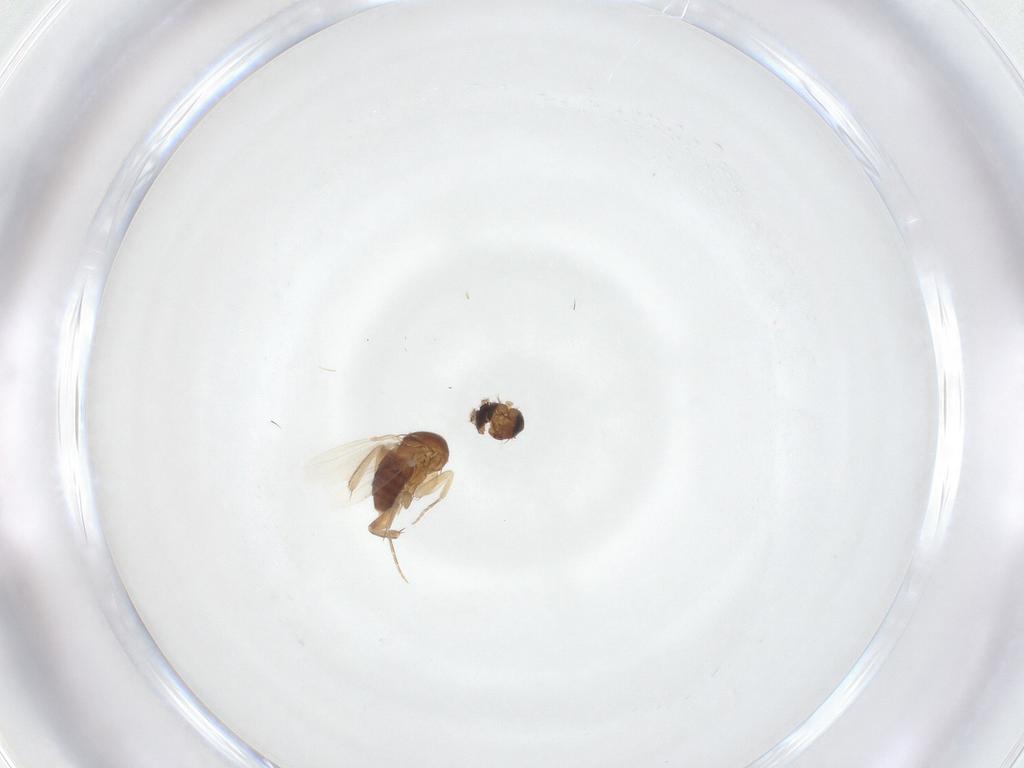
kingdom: Animalia
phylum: Arthropoda
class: Insecta
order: Diptera
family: Phoridae
